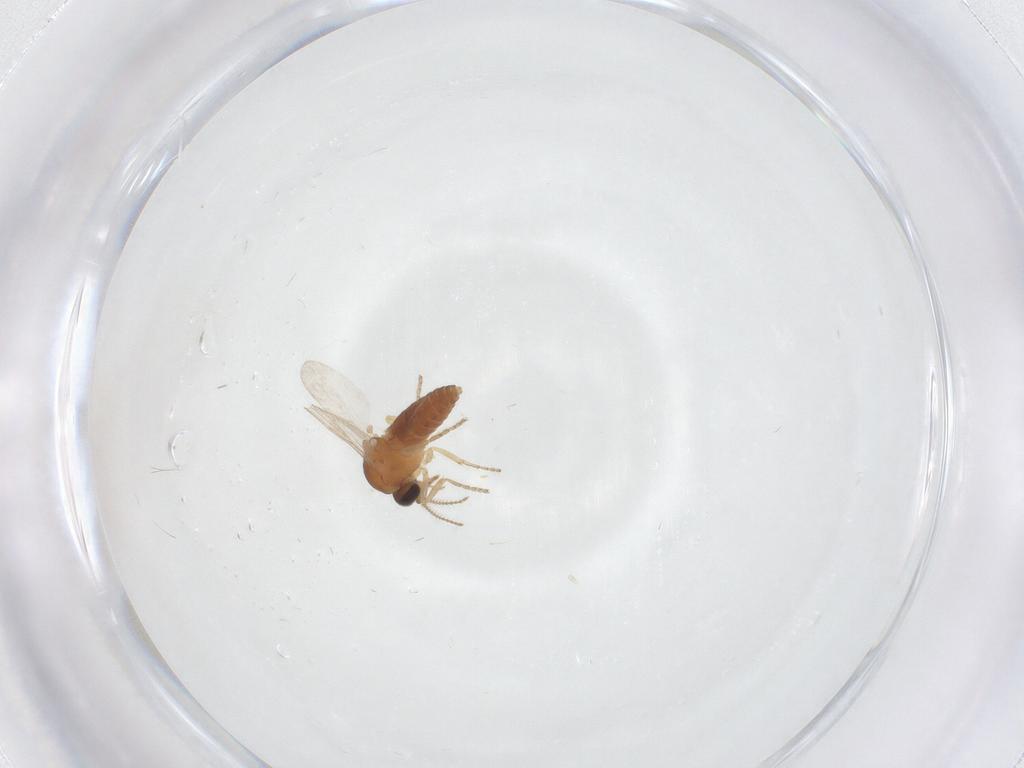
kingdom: Animalia
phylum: Arthropoda
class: Insecta
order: Diptera
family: Ceratopogonidae
